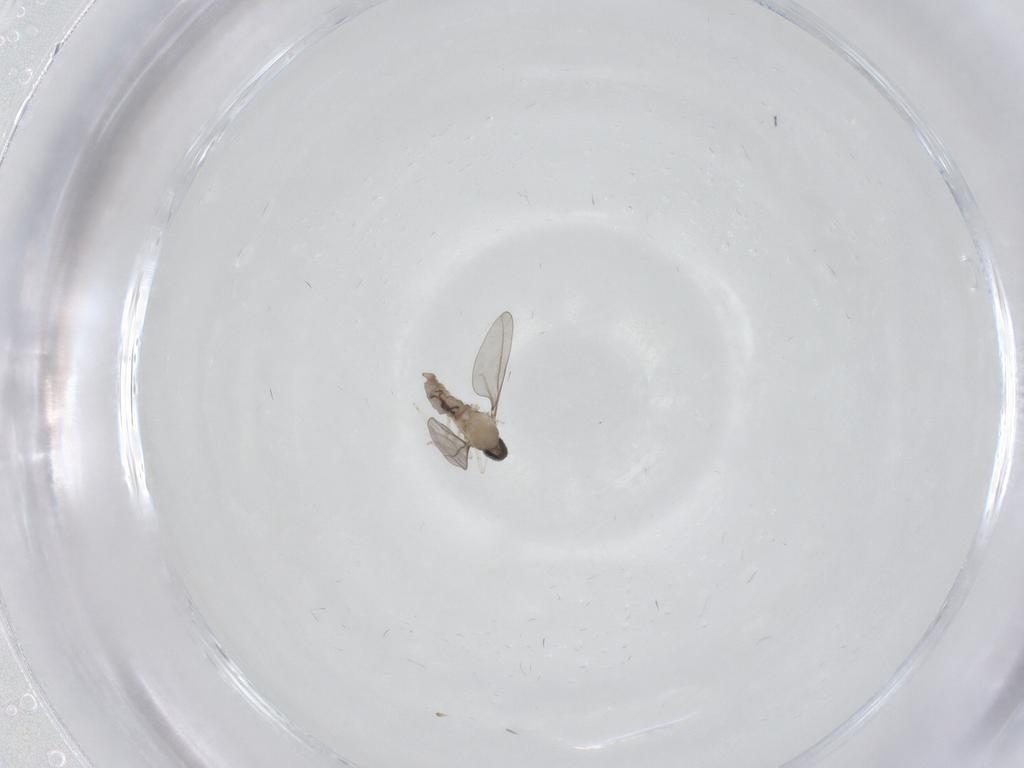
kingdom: Animalia
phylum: Arthropoda
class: Insecta
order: Diptera
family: Cecidomyiidae
